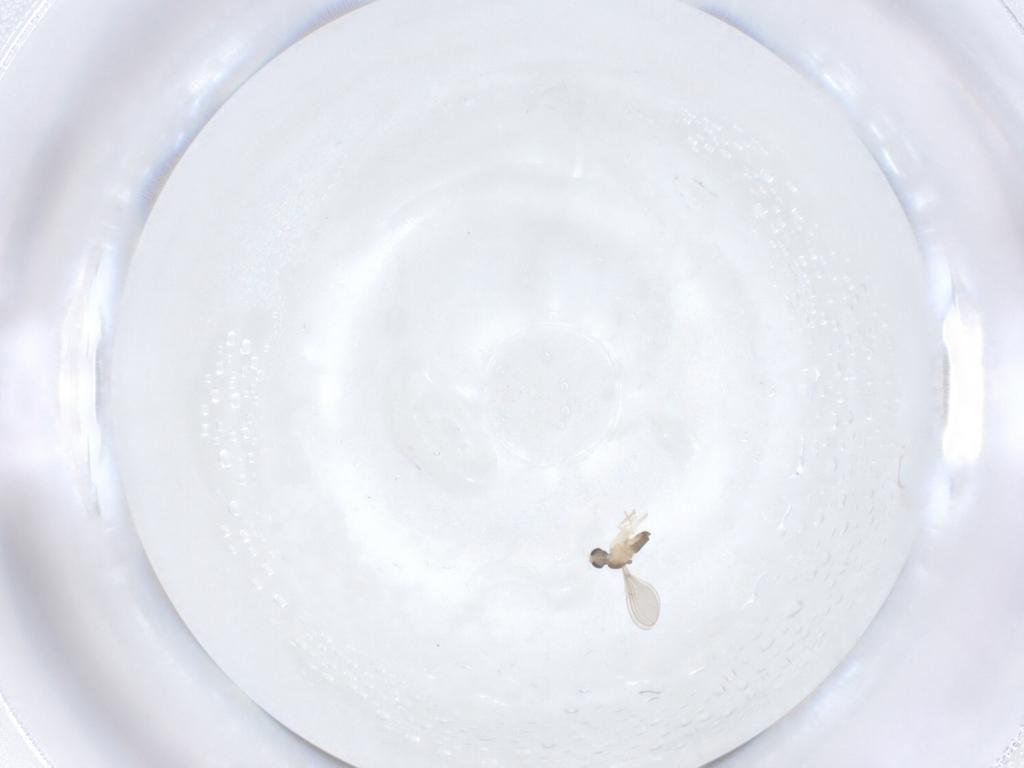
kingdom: Animalia
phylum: Arthropoda
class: Insecta
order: Diptera
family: Cecidomyiidae
